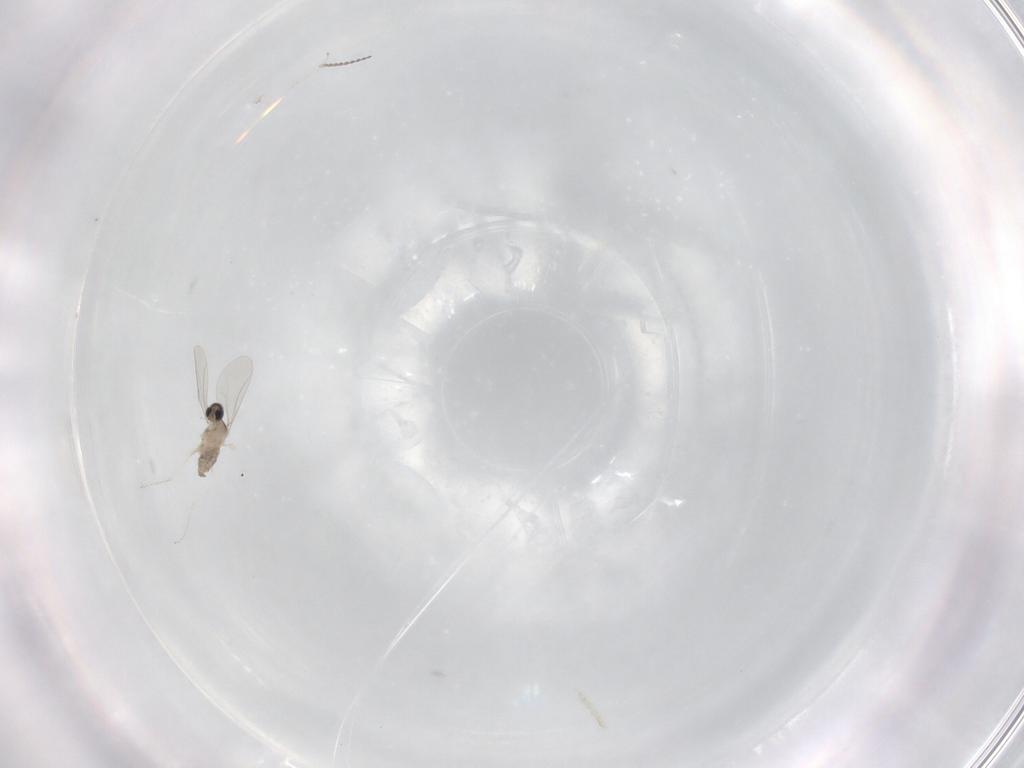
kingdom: Animalia
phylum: Arthropoda
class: Insecta
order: Diptera
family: Cecidomyiidae
